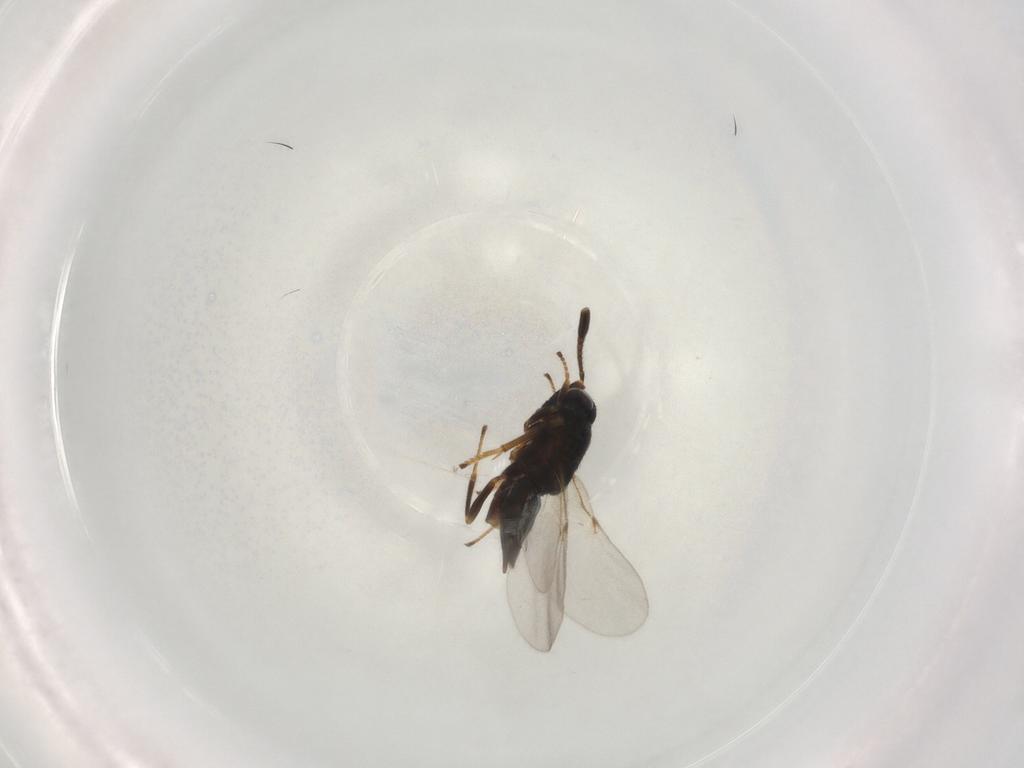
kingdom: Animalia
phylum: Arthropoda
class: Insecta
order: Hymenoptera
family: Vespidae
